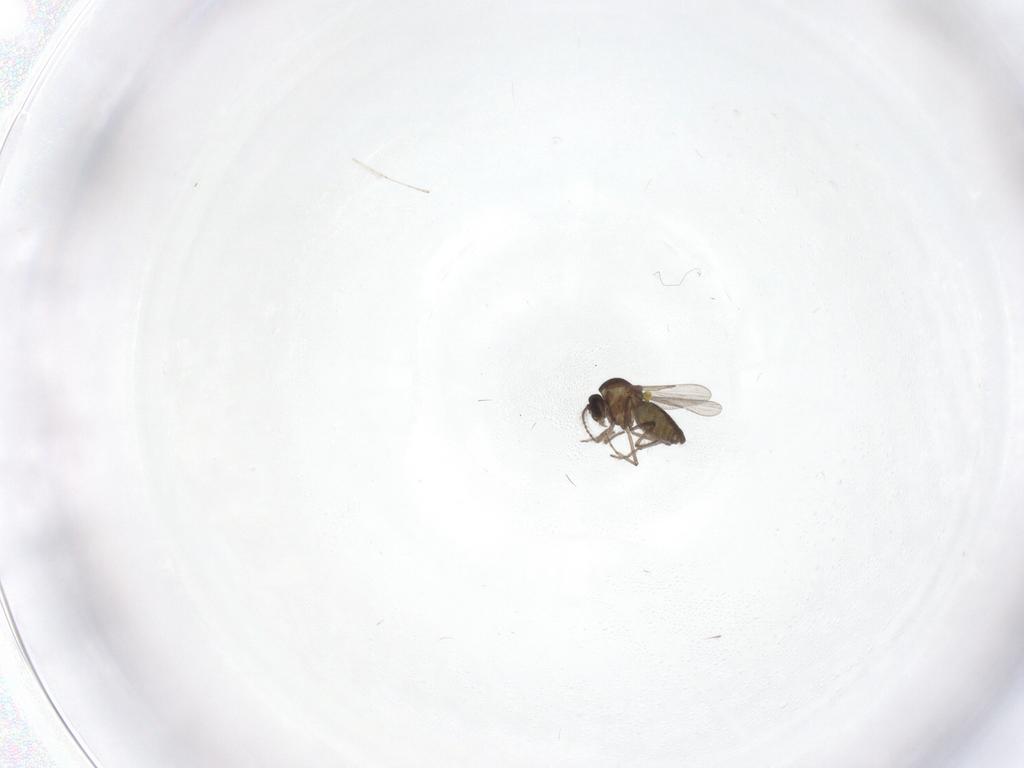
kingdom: Animalia
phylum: Arthropoda
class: Insecta
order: Diptera
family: Ceratopogonidae
